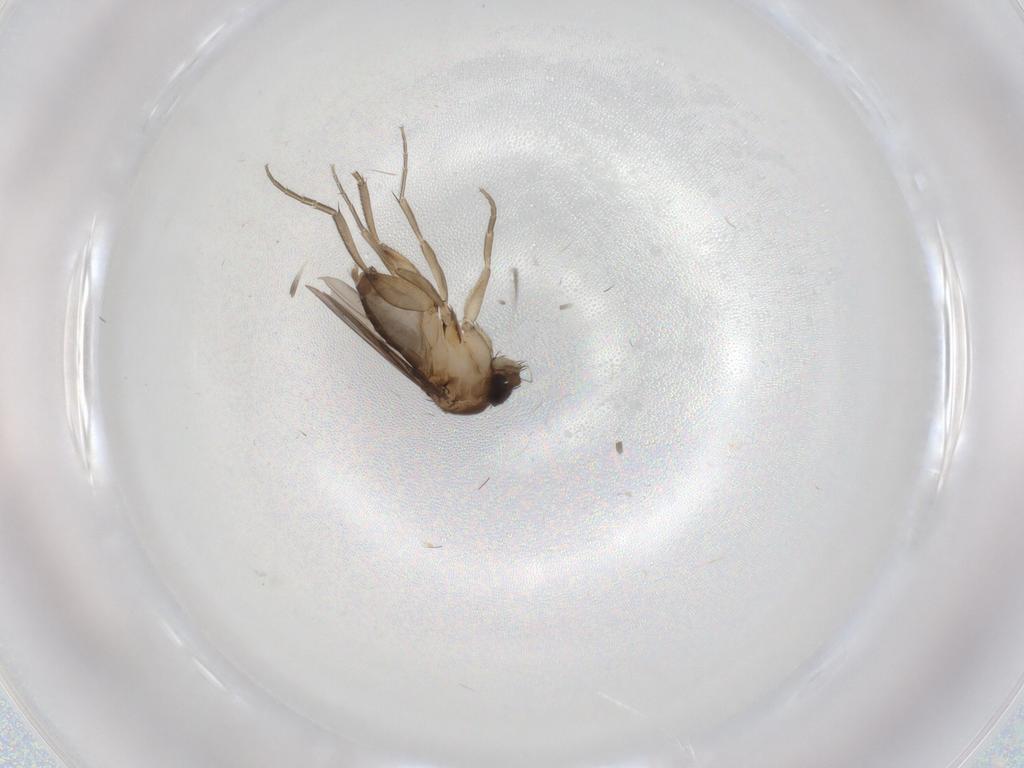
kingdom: Animalia
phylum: Arthropoda
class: Insecta
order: Diptera
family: Phoridae
